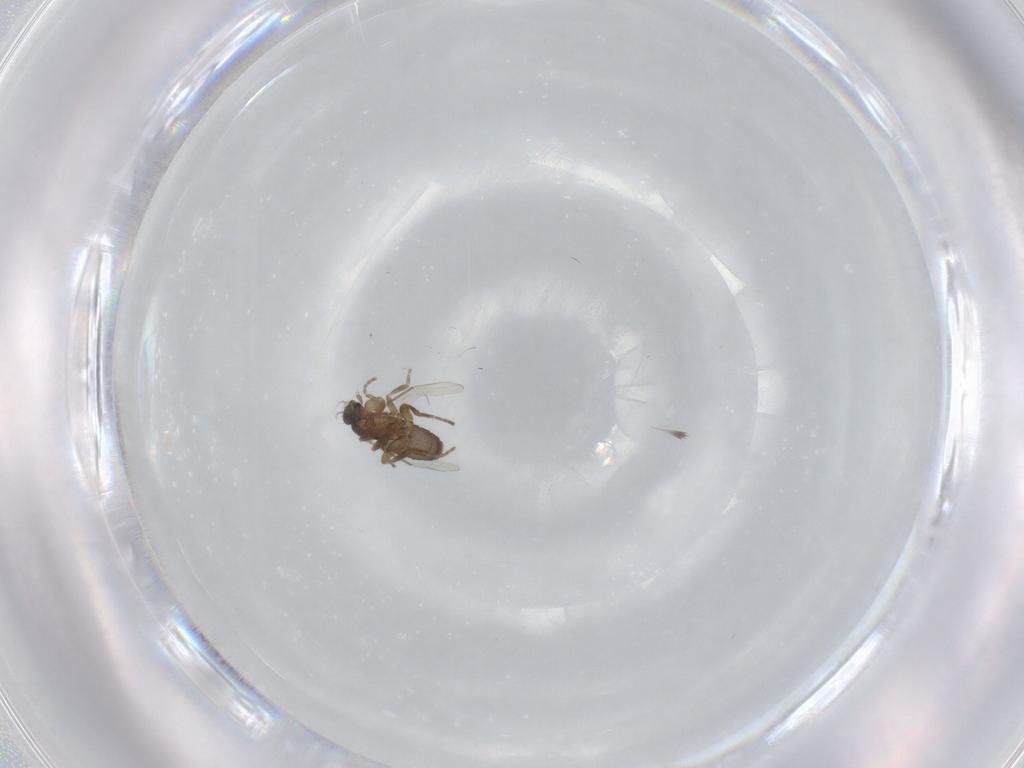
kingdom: Animalia
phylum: Arthropoda
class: Insecta
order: Diptera
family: Phoridae
